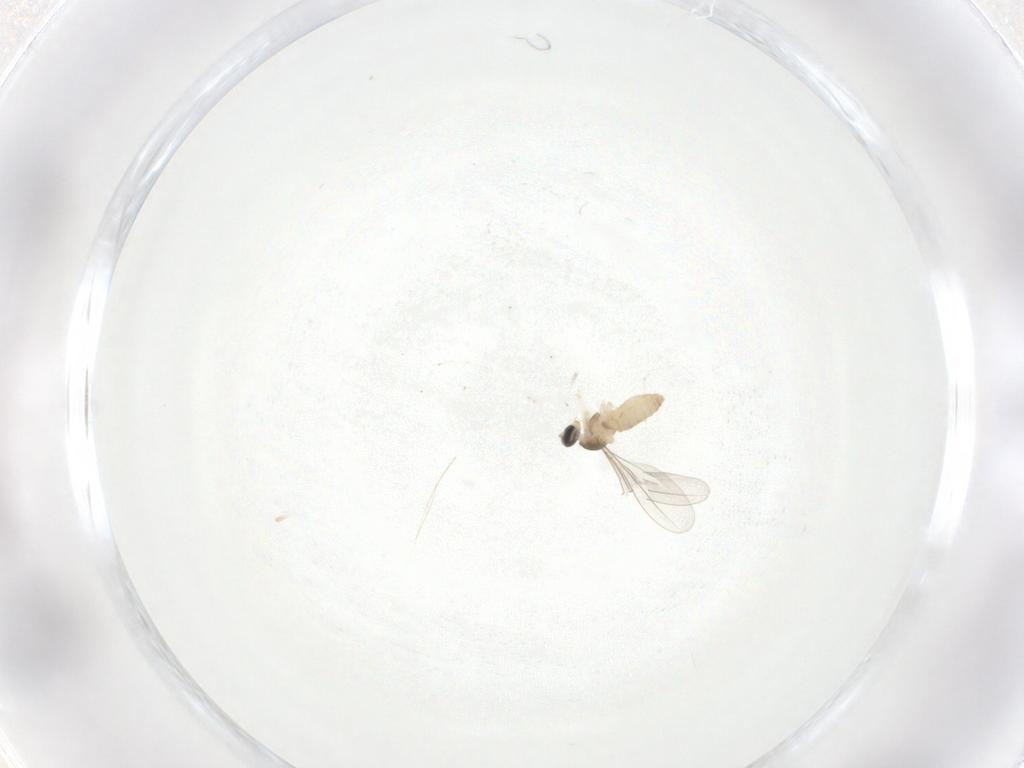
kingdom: Animalia
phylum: Arthropoda
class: Insecta
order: Diptera
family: Cecidomyiidae
